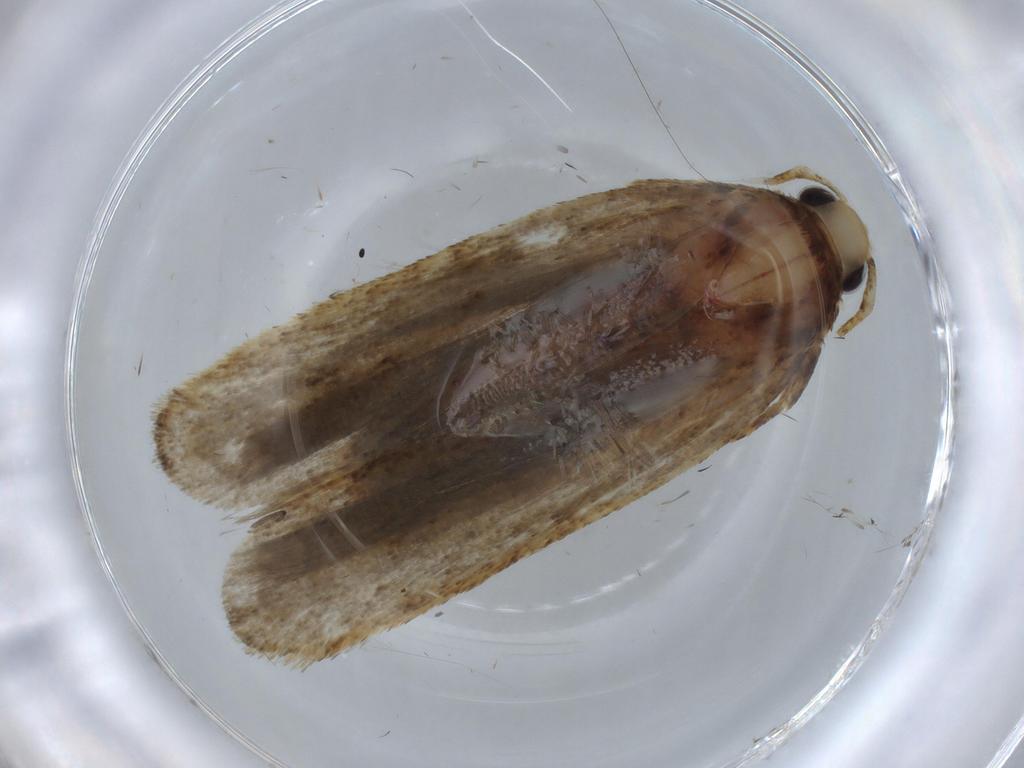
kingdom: Animalia
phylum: Arthropoda
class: Insecta
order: Lepidoptera
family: Autostichidae
